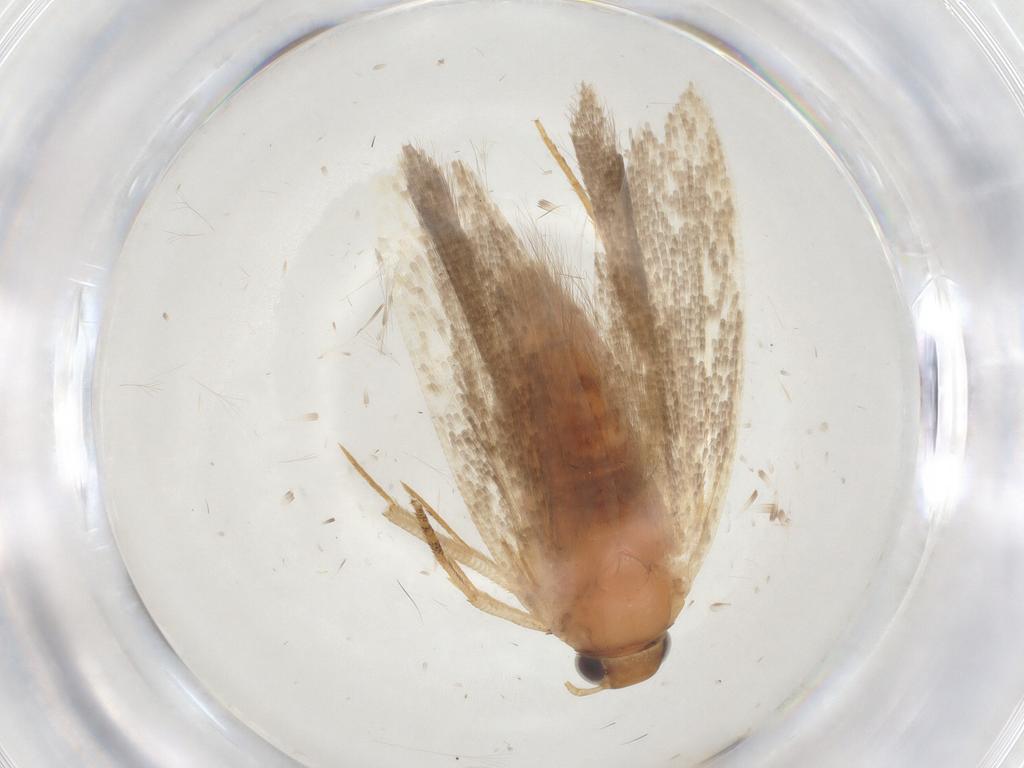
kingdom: Animalia
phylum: Arthropoda
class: Insecta
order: Lepidoptera
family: Gelechiidae
